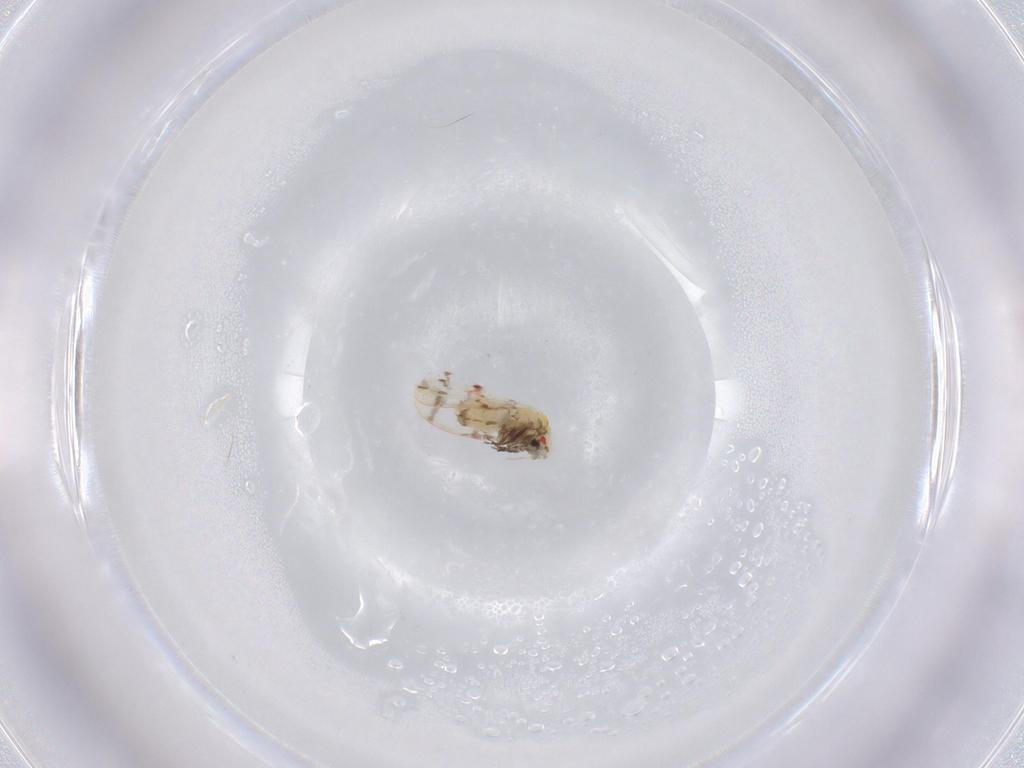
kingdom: Animalia
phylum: Arthropoda
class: Insecta
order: Hemiptera
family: Aleyrodidae
